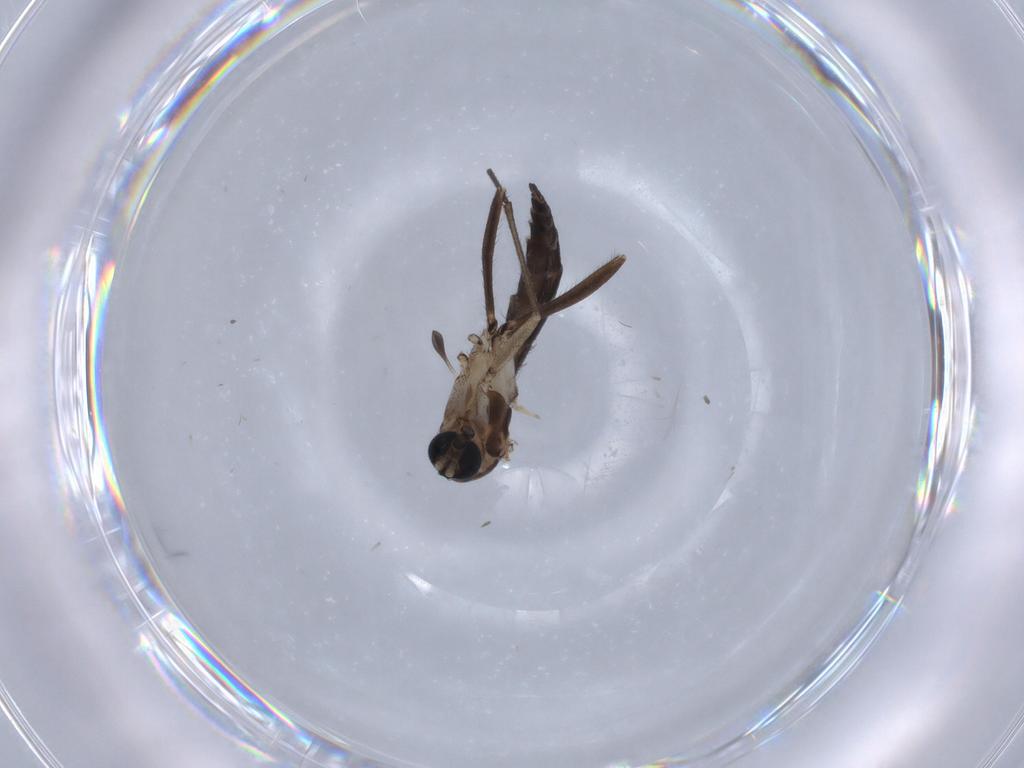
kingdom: Animalia
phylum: Arthropoda
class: Insecta
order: Diptera
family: Sciaridae
